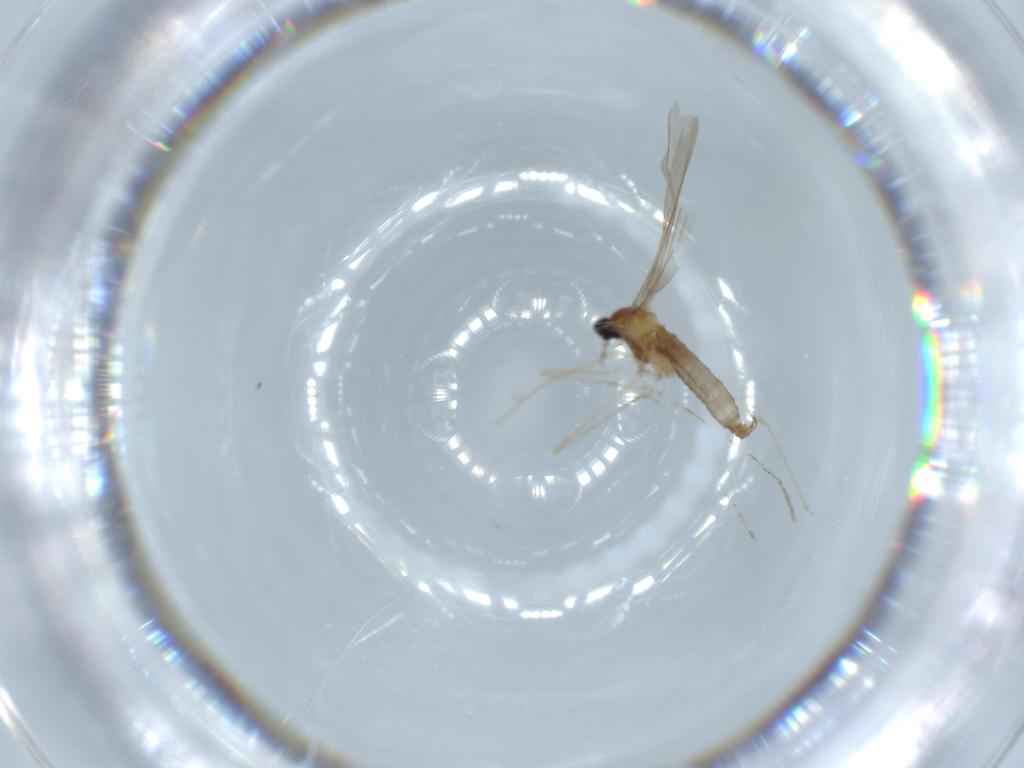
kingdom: Animalia
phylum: Arthropoda
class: Insecta
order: Diptera
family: Cecidomyiidae
